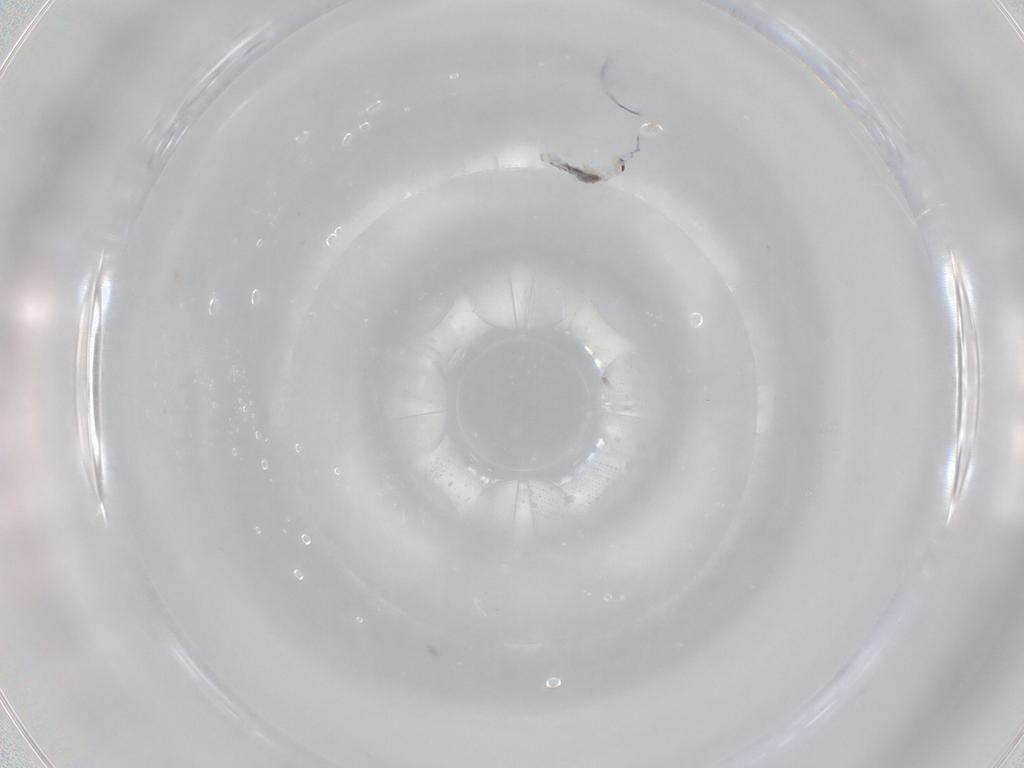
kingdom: Animalia
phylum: Arthropoda
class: Collembola
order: Entomobryomorpha
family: Entomobryidae
